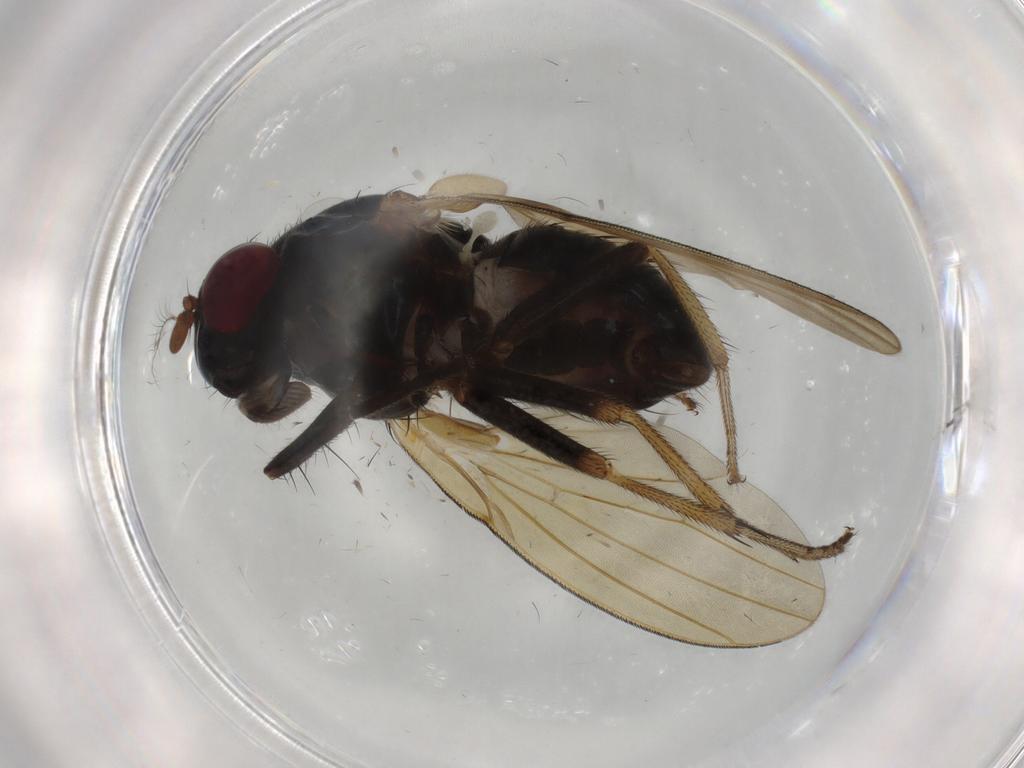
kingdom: Animalia
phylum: Arthropoda
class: Insecta
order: Diptera
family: Lauxaniidae
